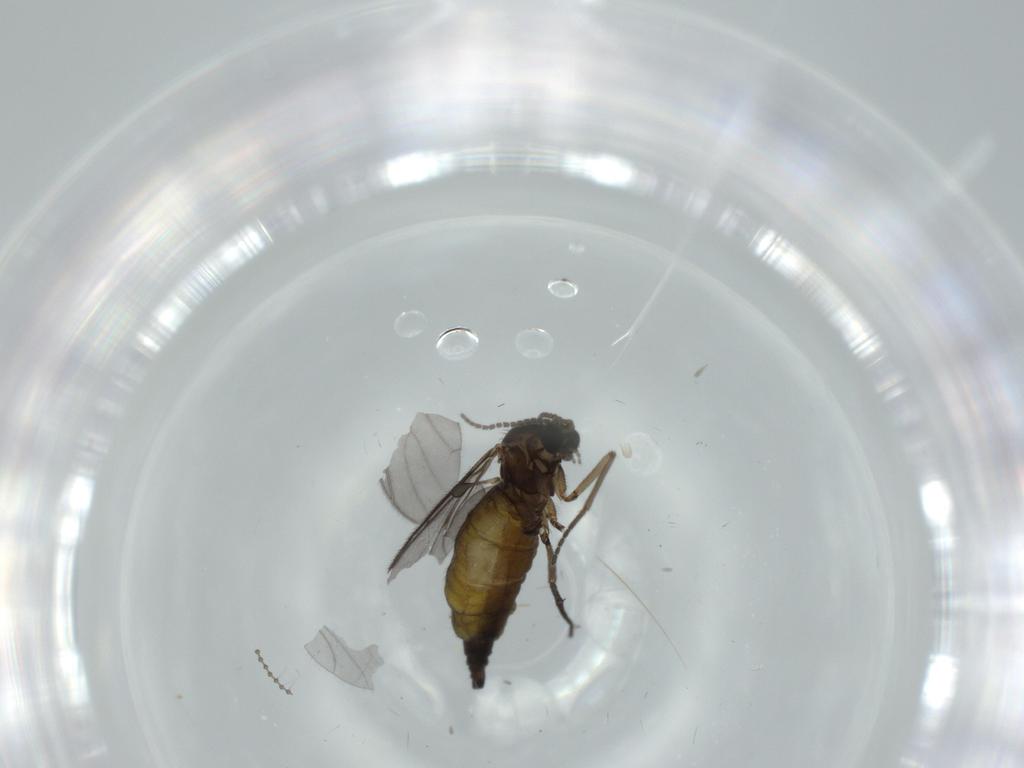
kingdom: Animalia
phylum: Arthropoda
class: Insecta
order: Diptera
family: Sciaridae
